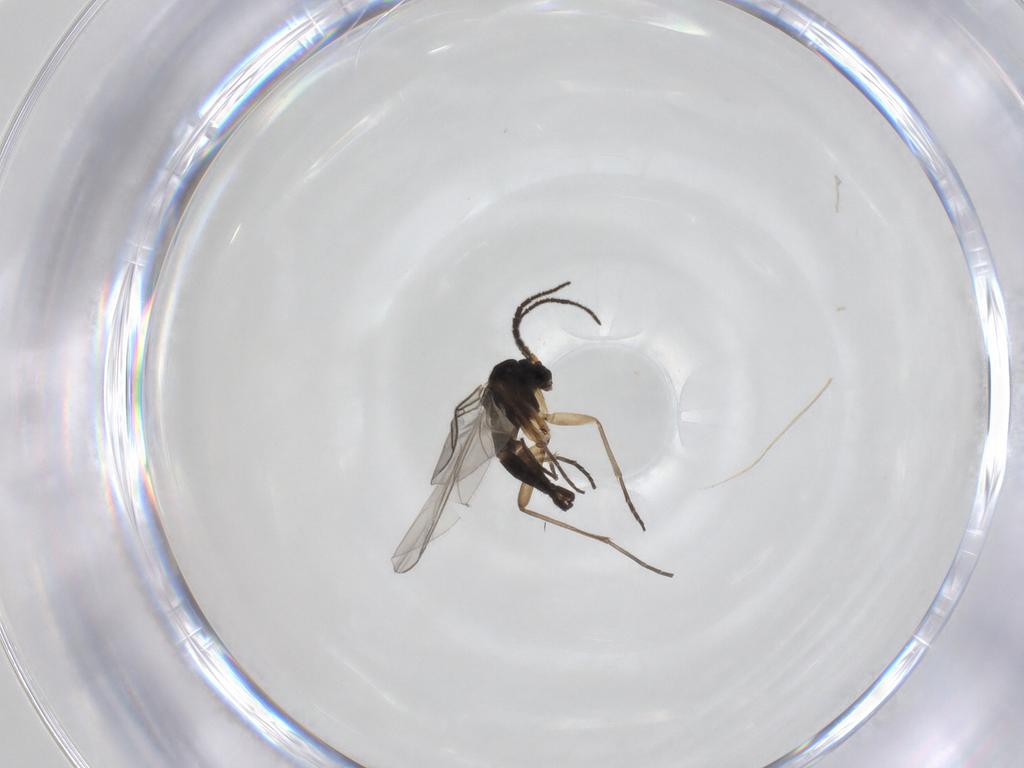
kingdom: Animalia
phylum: Arthropoda
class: Insecta
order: Diptera
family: Sciaridae
